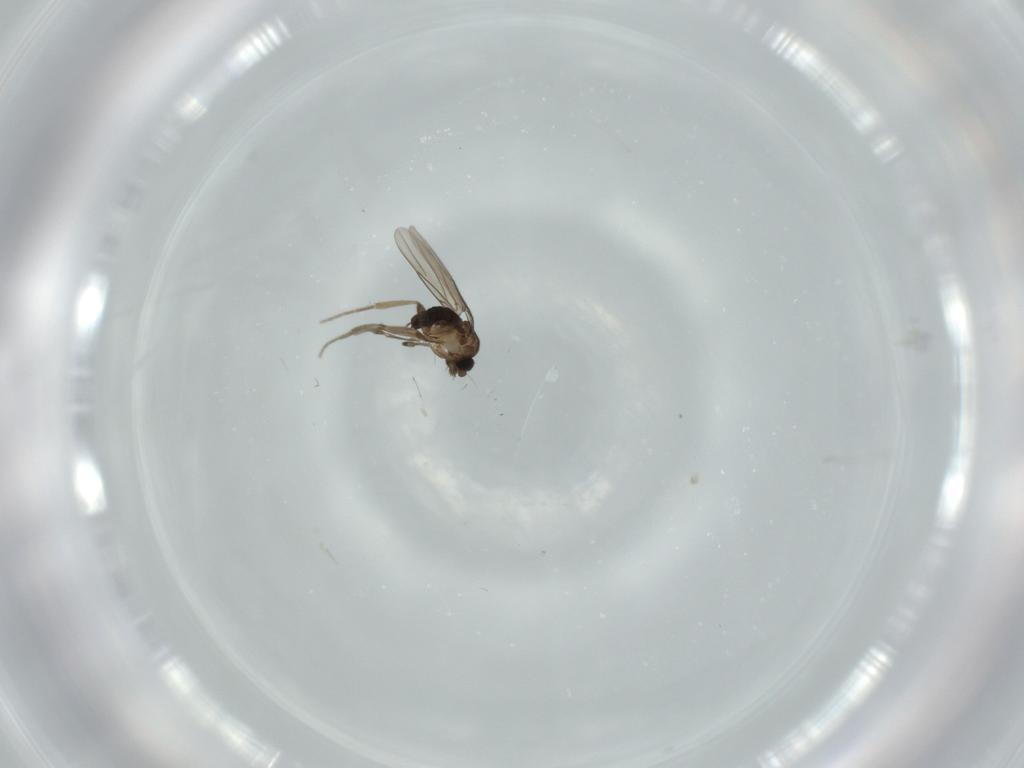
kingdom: Animalia
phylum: Arthropoda
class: Insecta
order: Diptera
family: Phoridae
